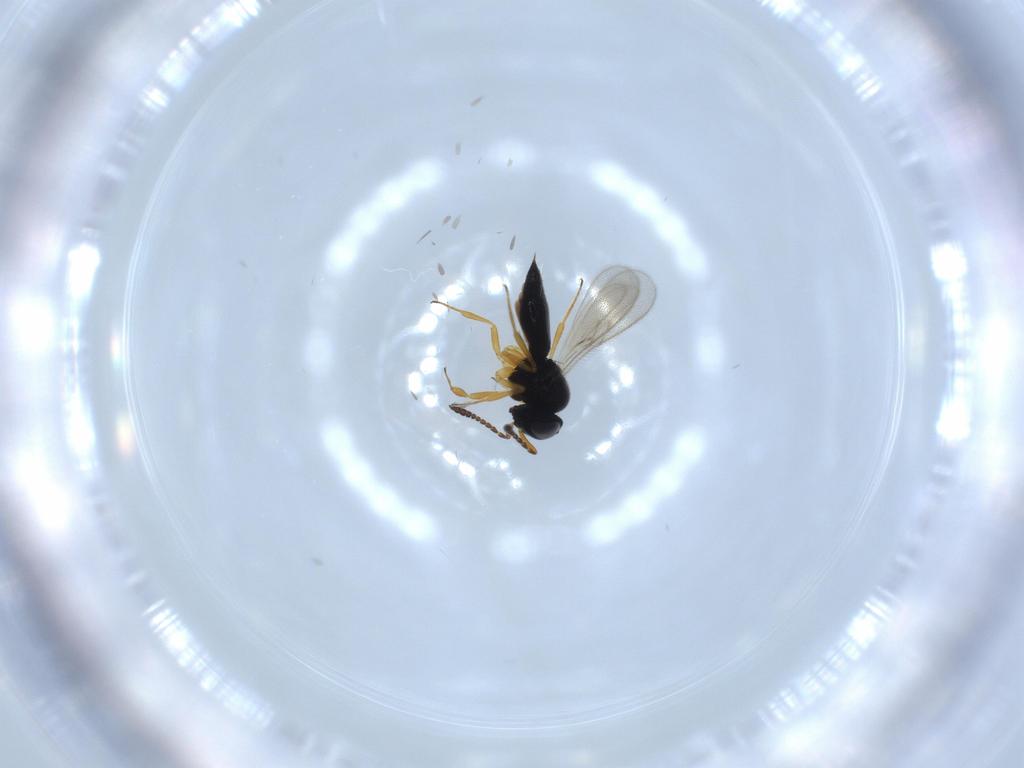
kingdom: Animalia
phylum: Arthropoda
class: Insecta
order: Hymenoptera
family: Scelionidae
